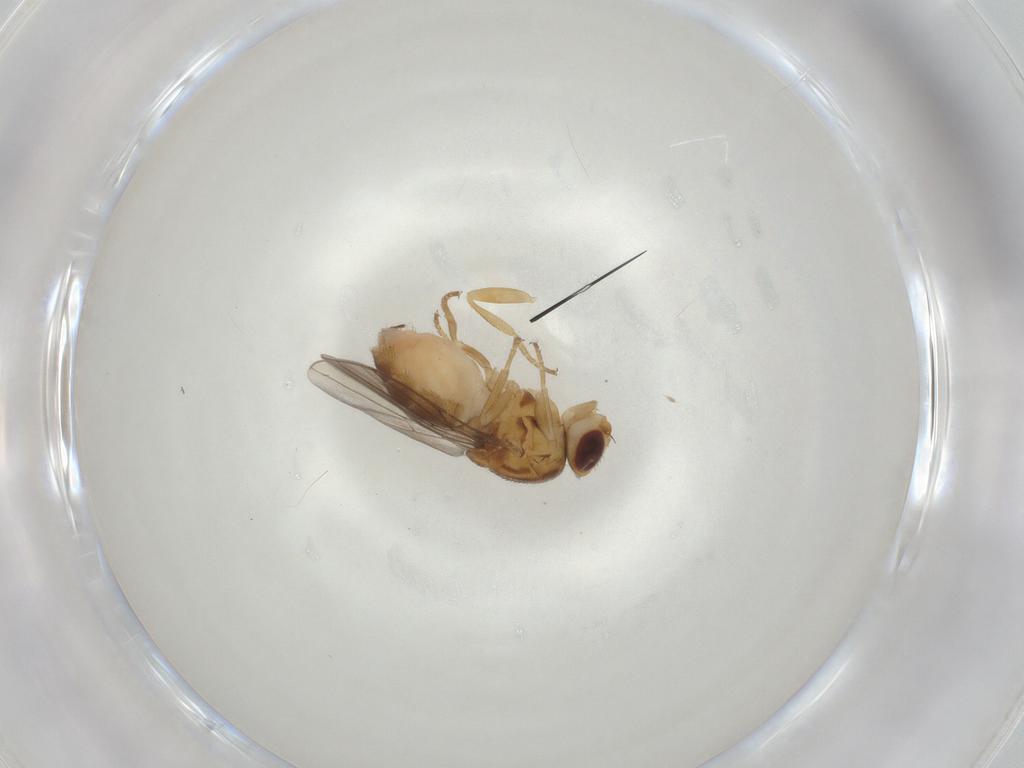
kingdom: Animalia
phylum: Arthropoda
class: Insecta
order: Diptera
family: Chloropidae
